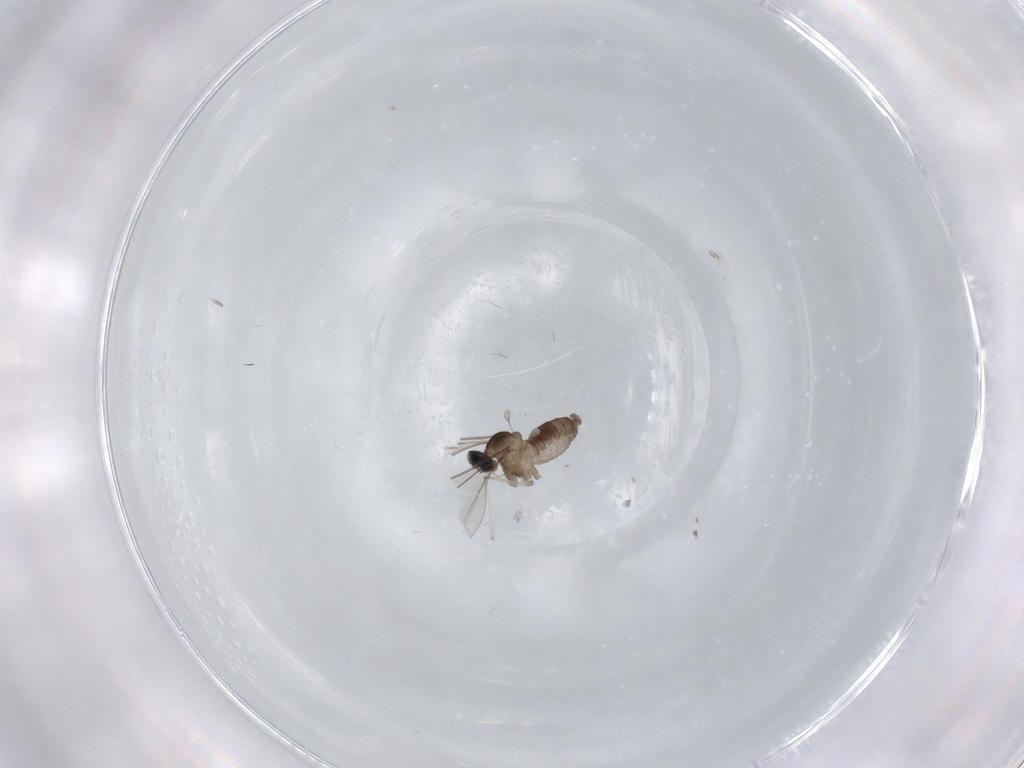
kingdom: Animalia
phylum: Arthropoda
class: Insecta
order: Diptera
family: Cecidomyiidae
